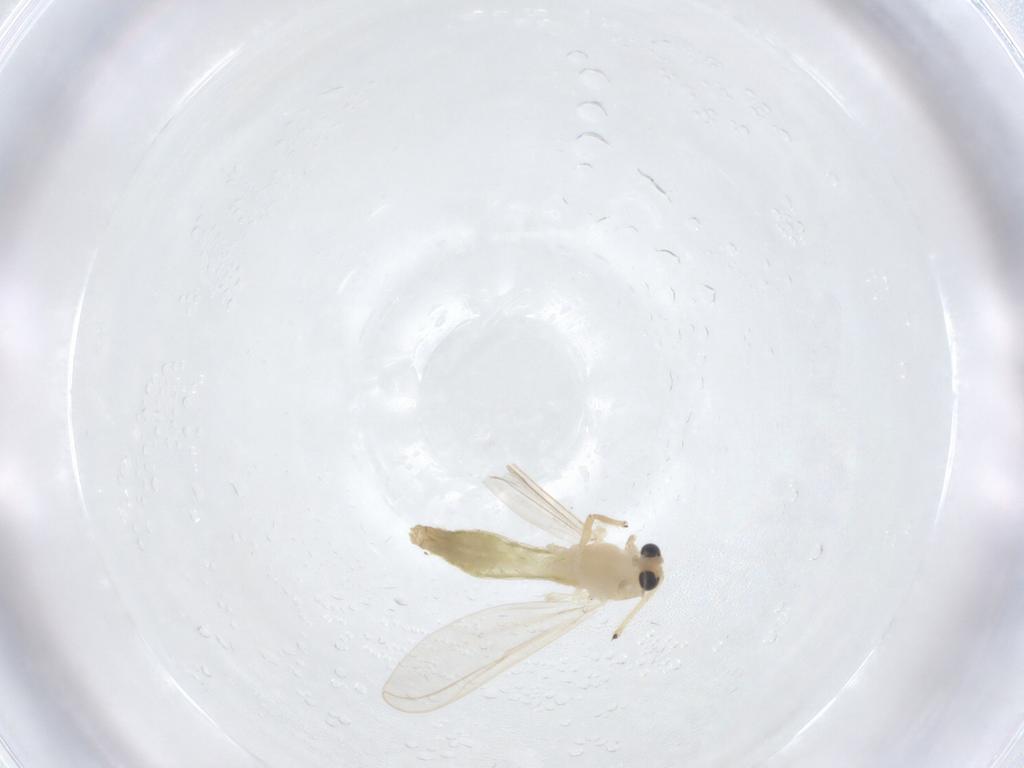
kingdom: Animalia
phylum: Arthropoda
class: Insecta
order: Diptera
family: Chironomidae
